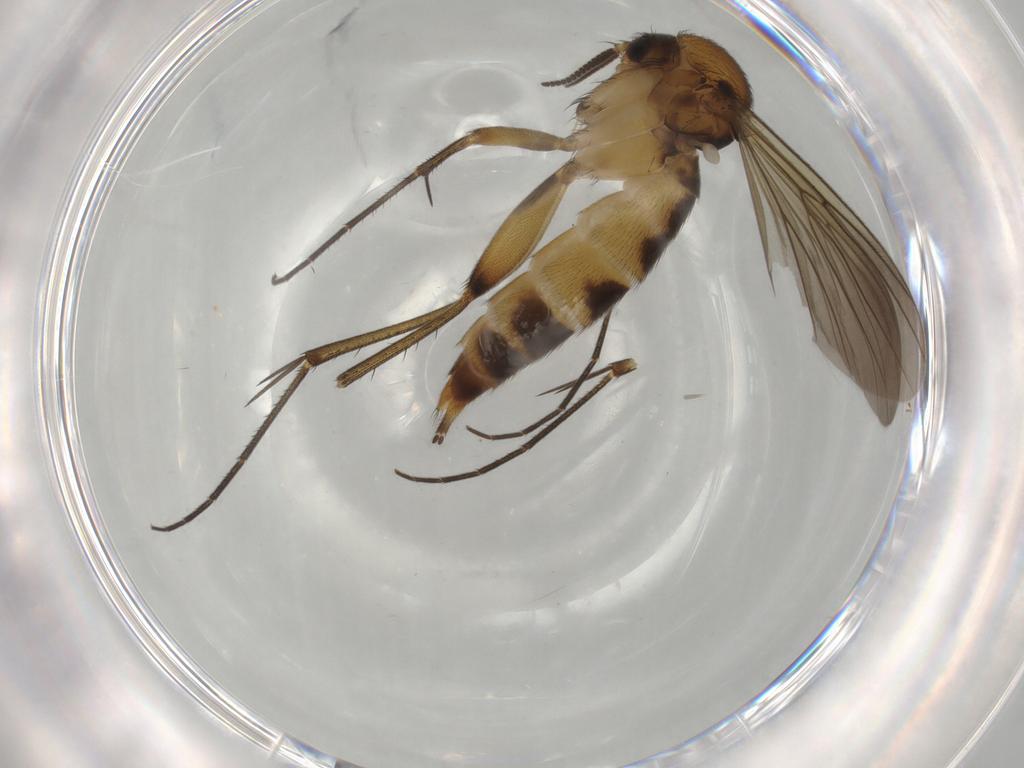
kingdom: Animalia
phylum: Arthropoda
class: Insecta
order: Diptera
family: Mycetophilidae
